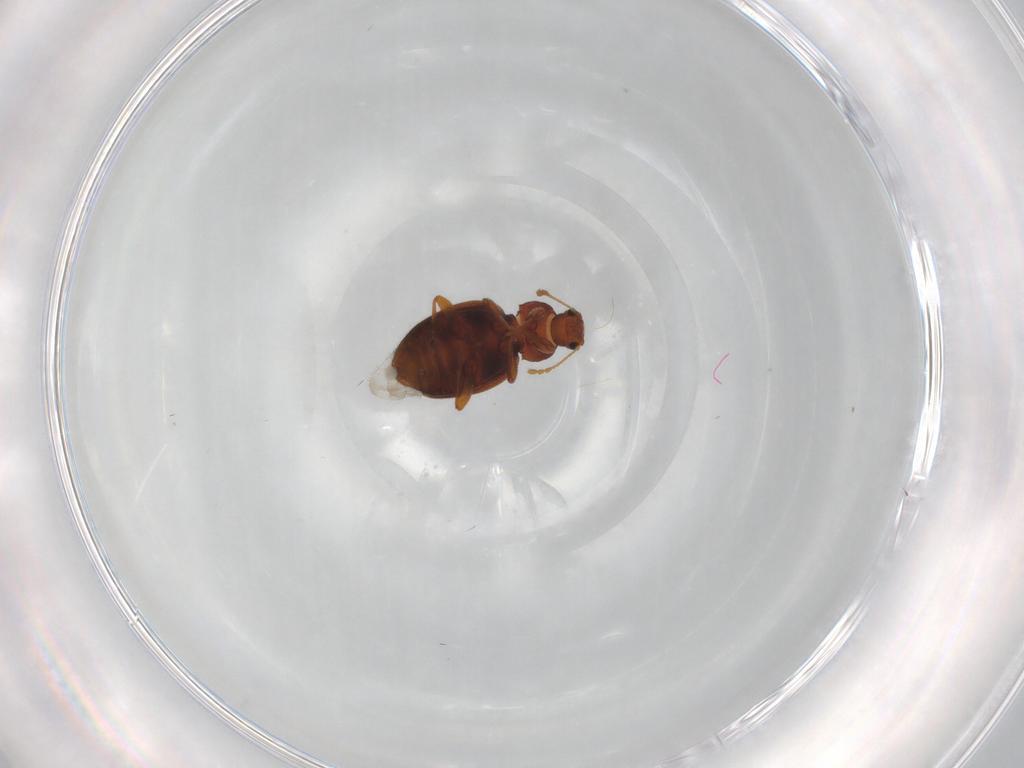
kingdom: Animalia
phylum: Arthropoda
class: Insecta
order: Coleoptera
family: Latridiidae
